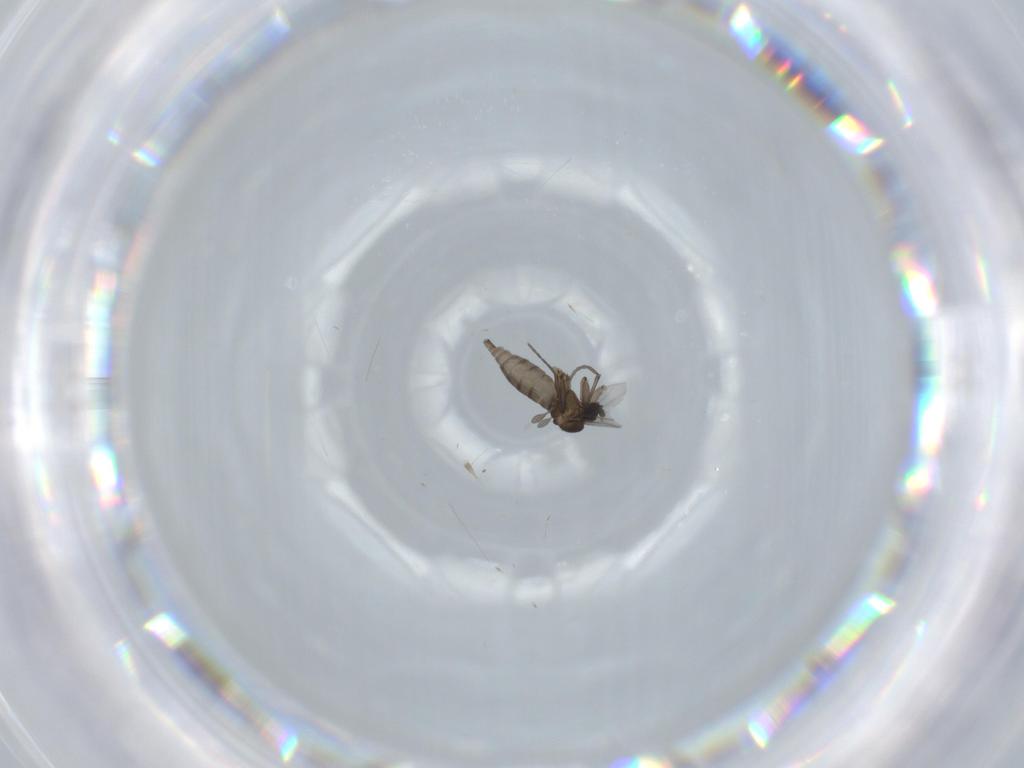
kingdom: Animalia
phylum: Arthropoda
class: Insecta
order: Diptera
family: Sciaridae
